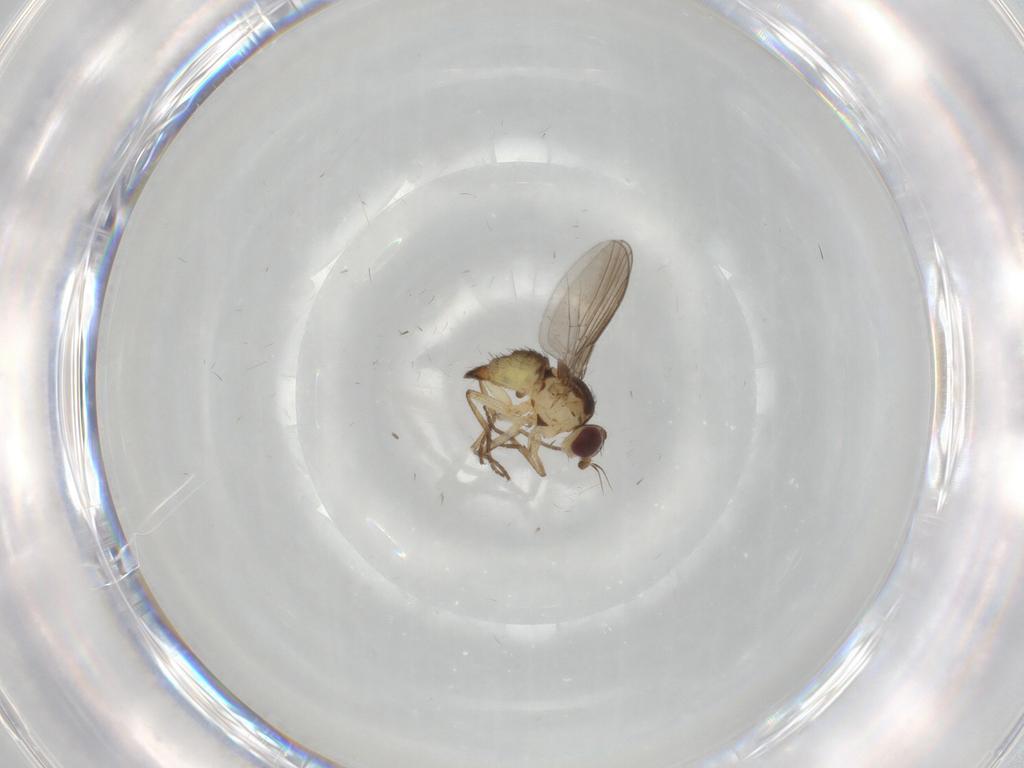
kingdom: Animalia
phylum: Arthropoda
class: Insecta
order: Diptera
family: Agromyzidae
